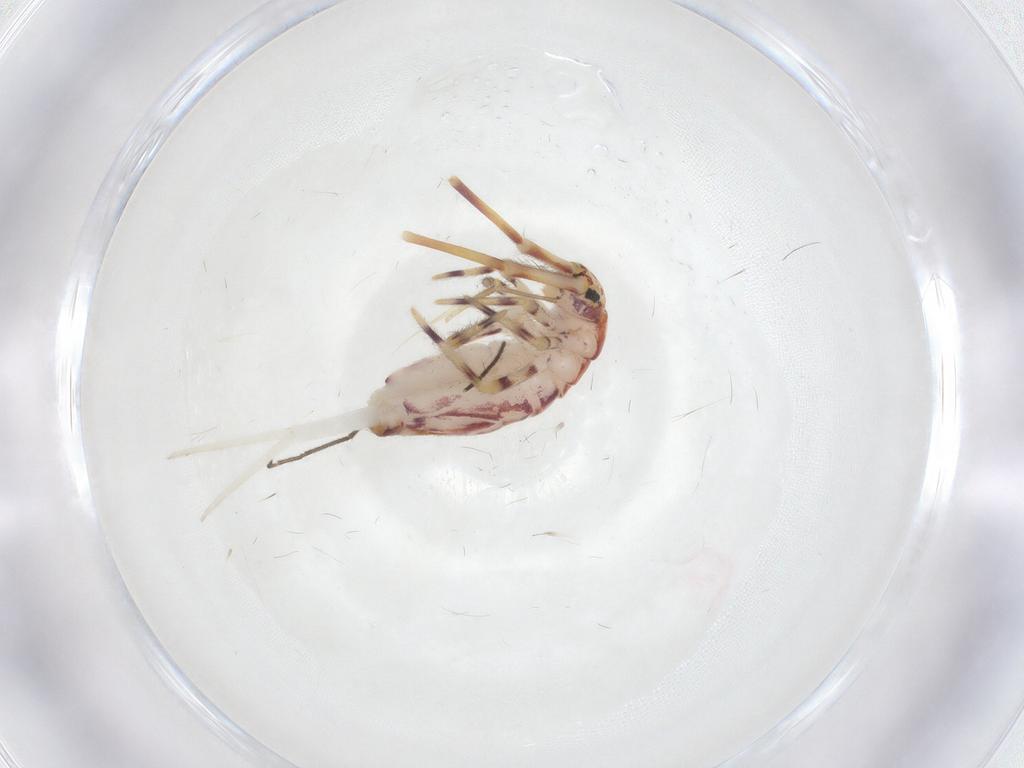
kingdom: Animalia
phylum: Arthropoda
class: Collembola
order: Entomobryomorpha
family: Entomobryidae
